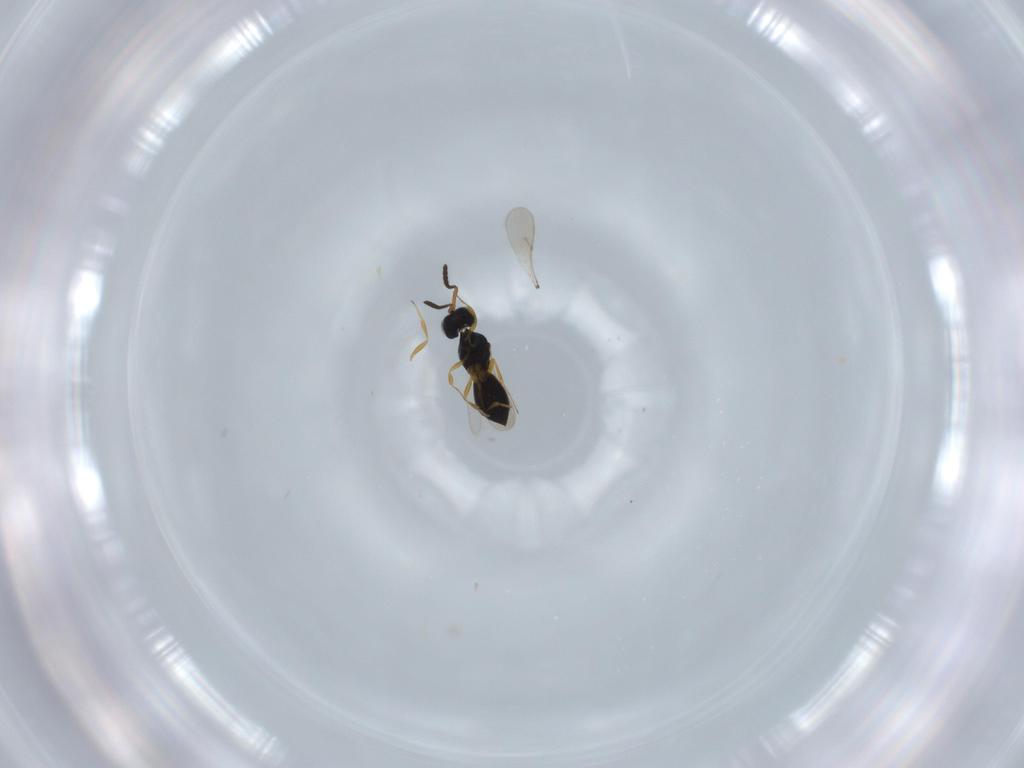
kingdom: Animalia
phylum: Arthropoda
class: Insecta
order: Hymenoptera
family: Scelionidae
